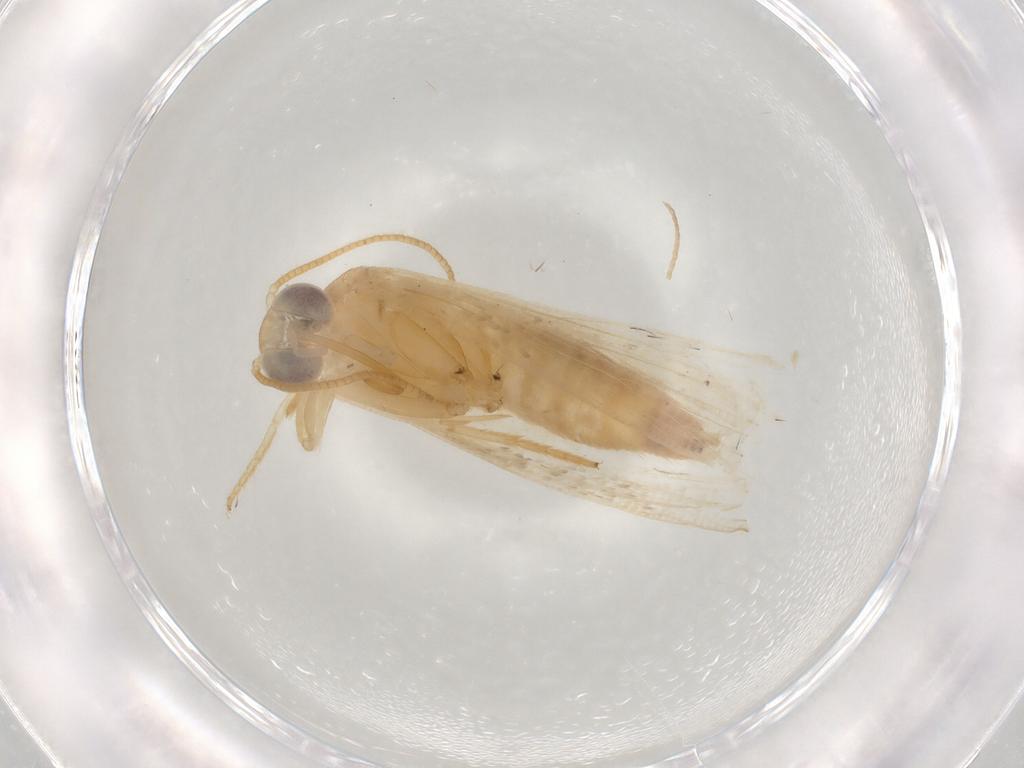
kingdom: Animalia
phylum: Arthropoda
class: Insecta
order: Lepidoptera
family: Noctuidae
